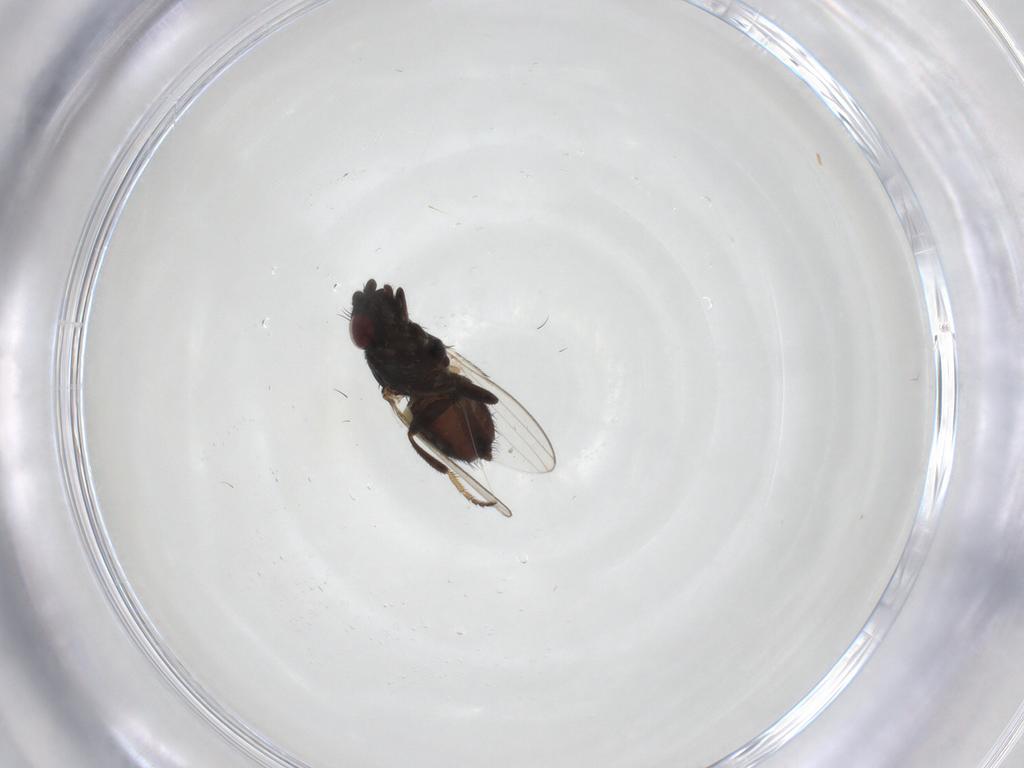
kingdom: Animalia
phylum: Arthropoda
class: Insecta
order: Diptera
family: Milichiidae
